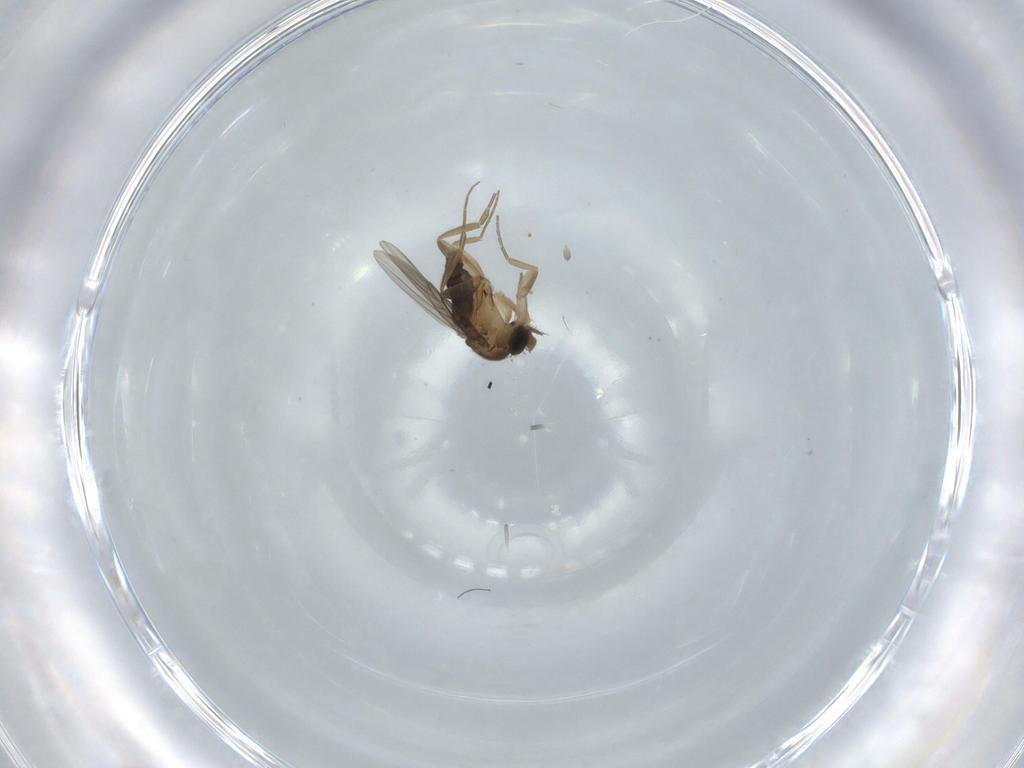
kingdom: Animalia
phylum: Arthropoda
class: Insecta
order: Diptera
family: Phoridae
